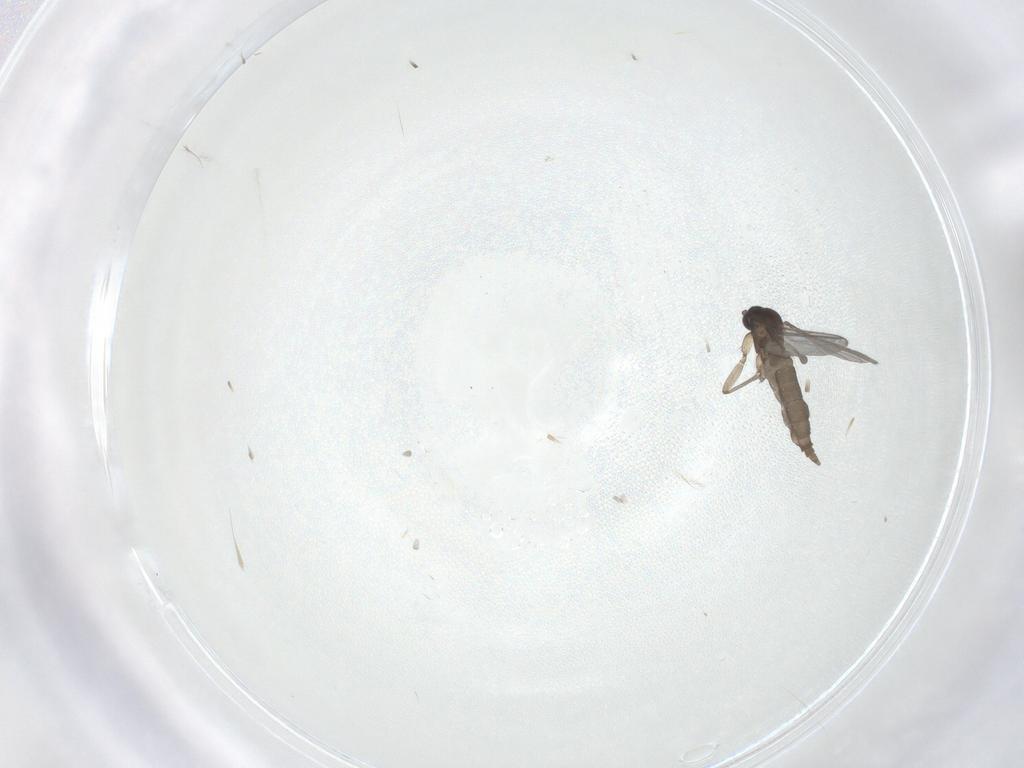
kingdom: Animalia
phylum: Arthropoda
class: Insecta
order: Diptera
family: Sciaridae
